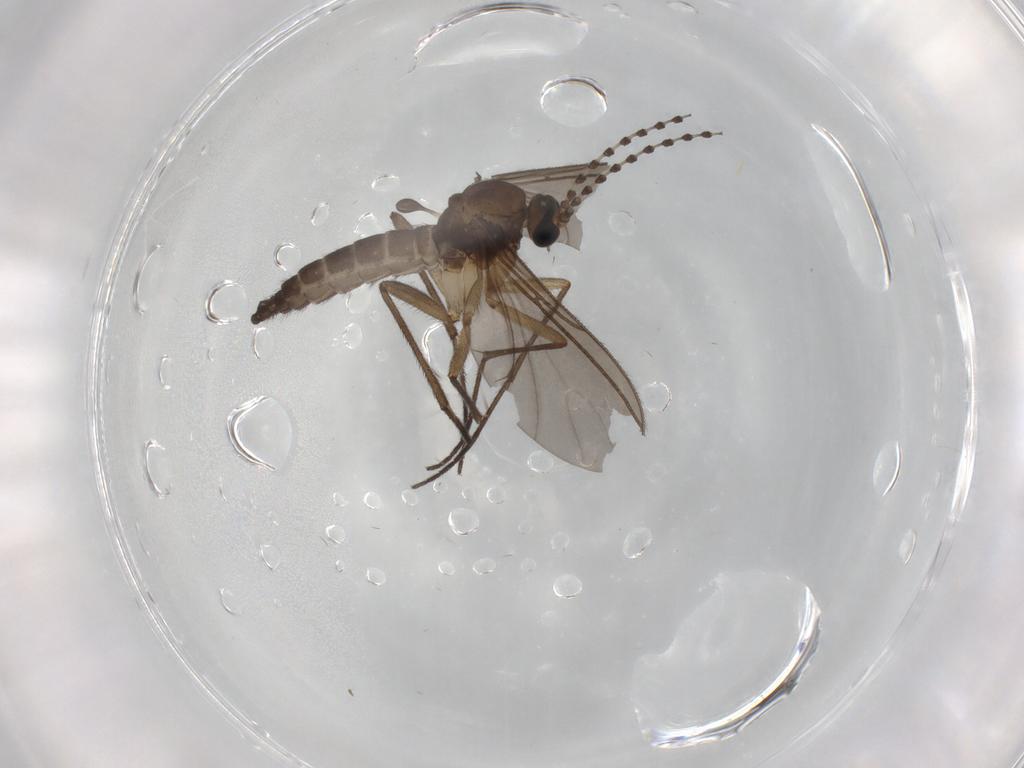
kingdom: Animalia
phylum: Arthropoda
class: Insecta
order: Diptera
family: Sciaridae
